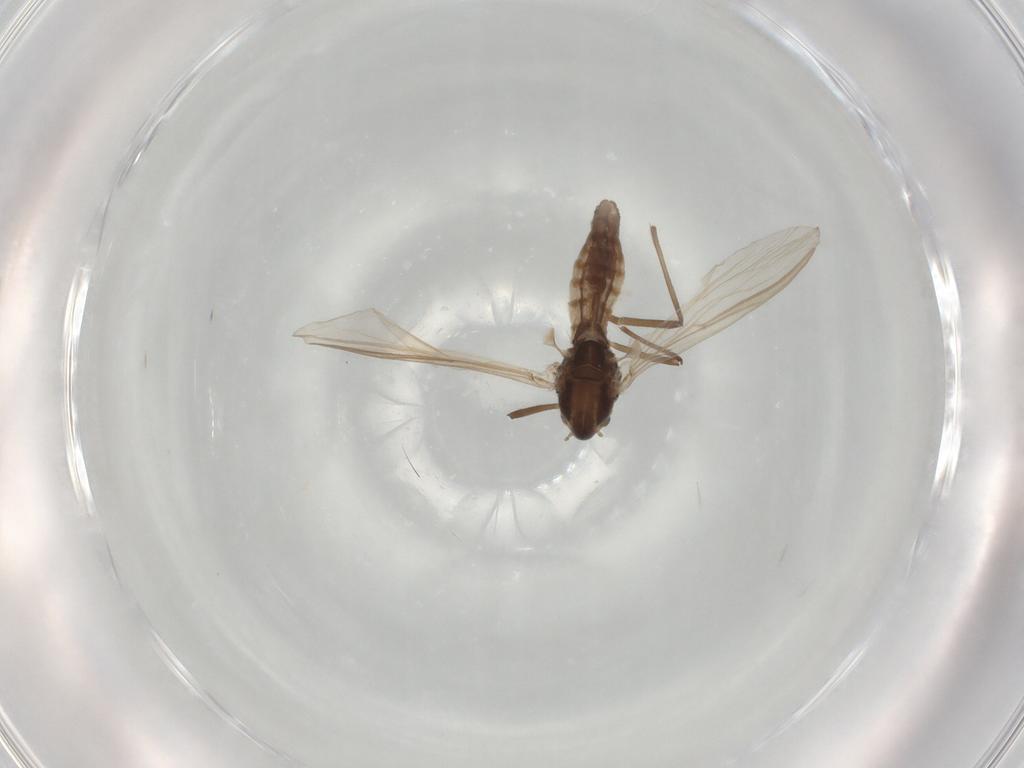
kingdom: Animalia
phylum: Arthropoda
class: Insecta
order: Diptera
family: Chironomidae
